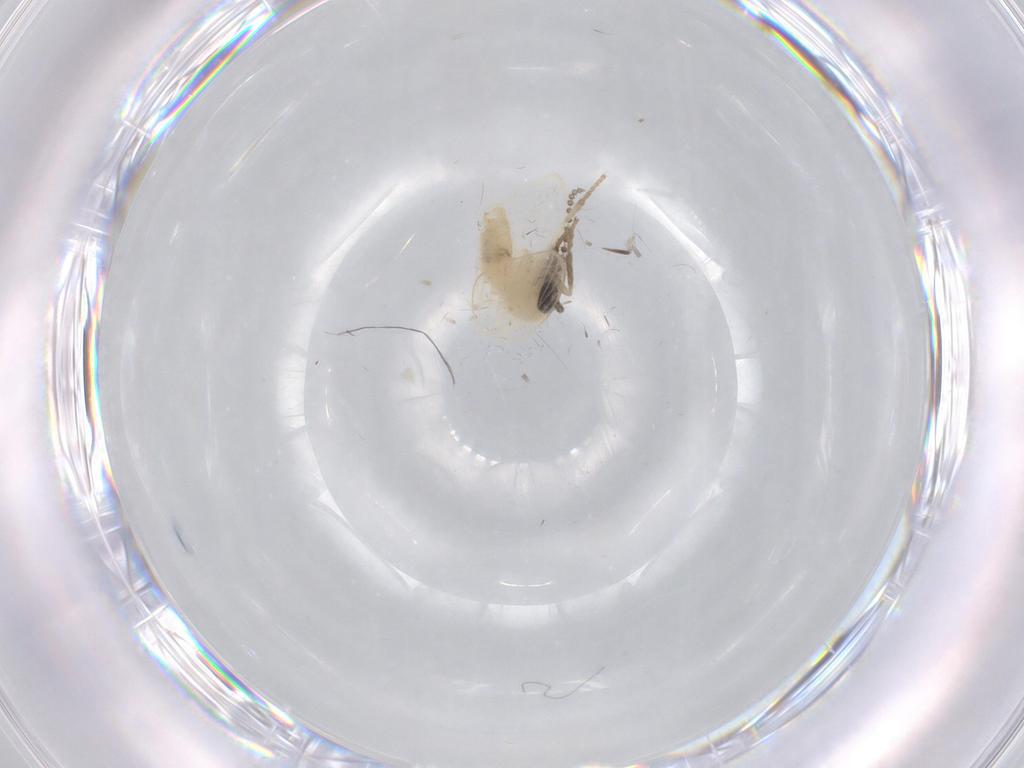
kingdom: Animalia
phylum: Arthropoda
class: Insecta
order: Diptera
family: Psychodidae
